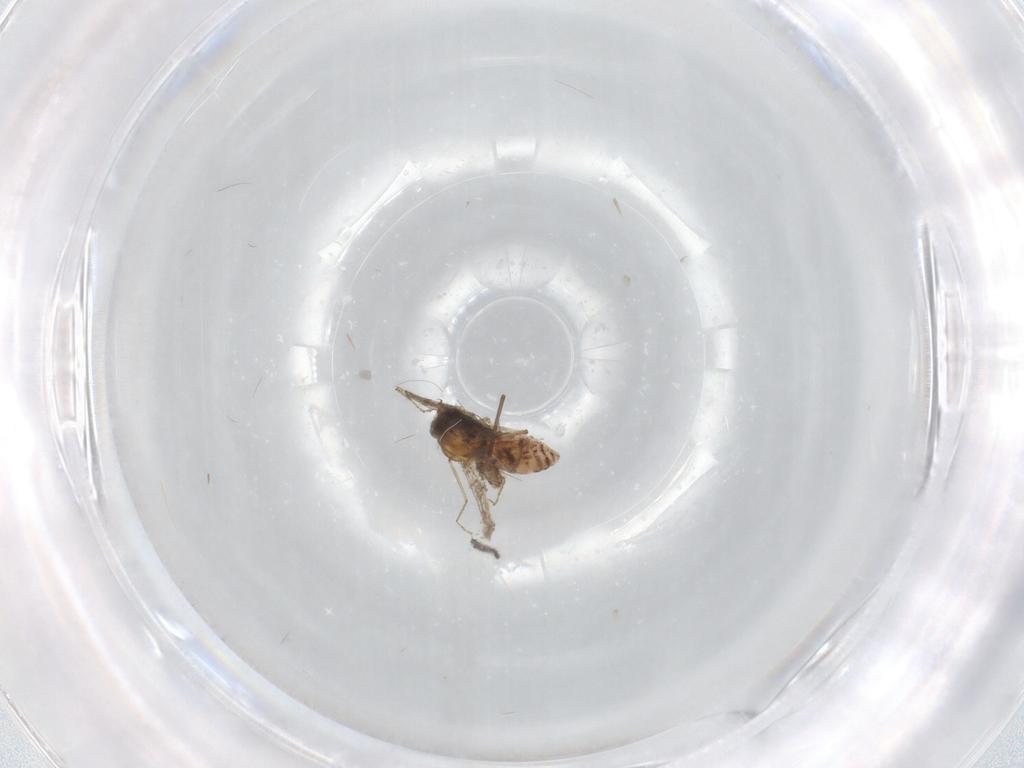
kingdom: Animalia
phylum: Arthropoda
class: Insecta
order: Diptera
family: Ceratopogonidae
